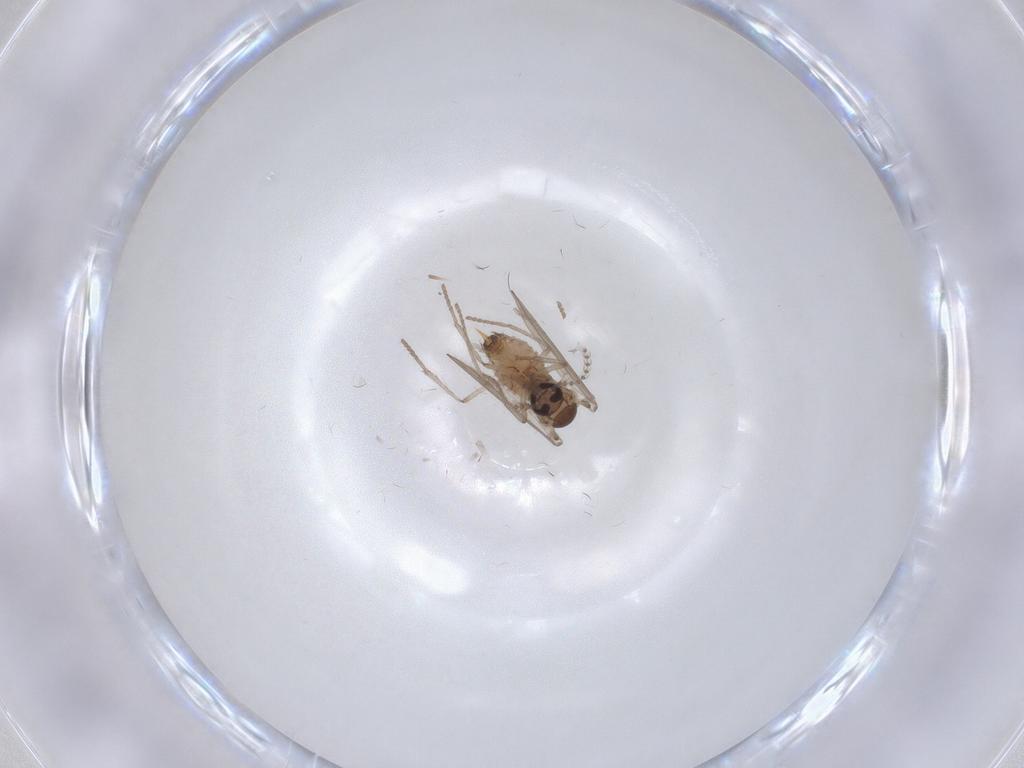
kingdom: Animalia
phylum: Arthropoda
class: Insecta
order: Diptera
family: Psychodidae
